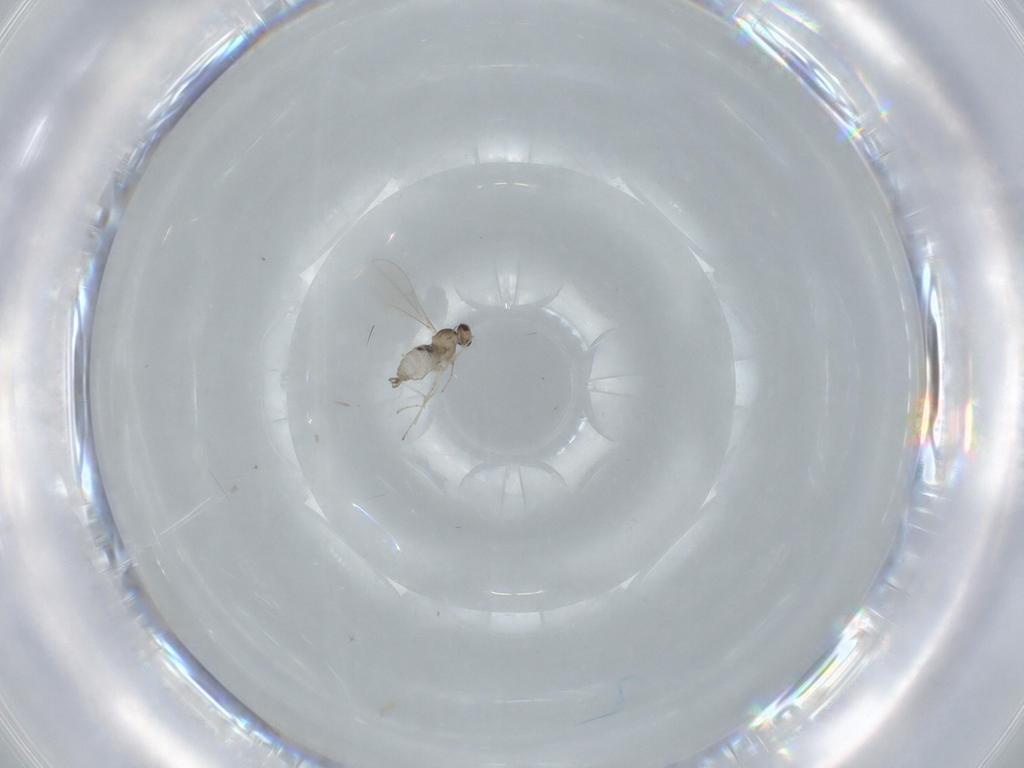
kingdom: Animalia
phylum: Arthropoda
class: Insecta
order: Diptera
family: Cecidomyiidae
